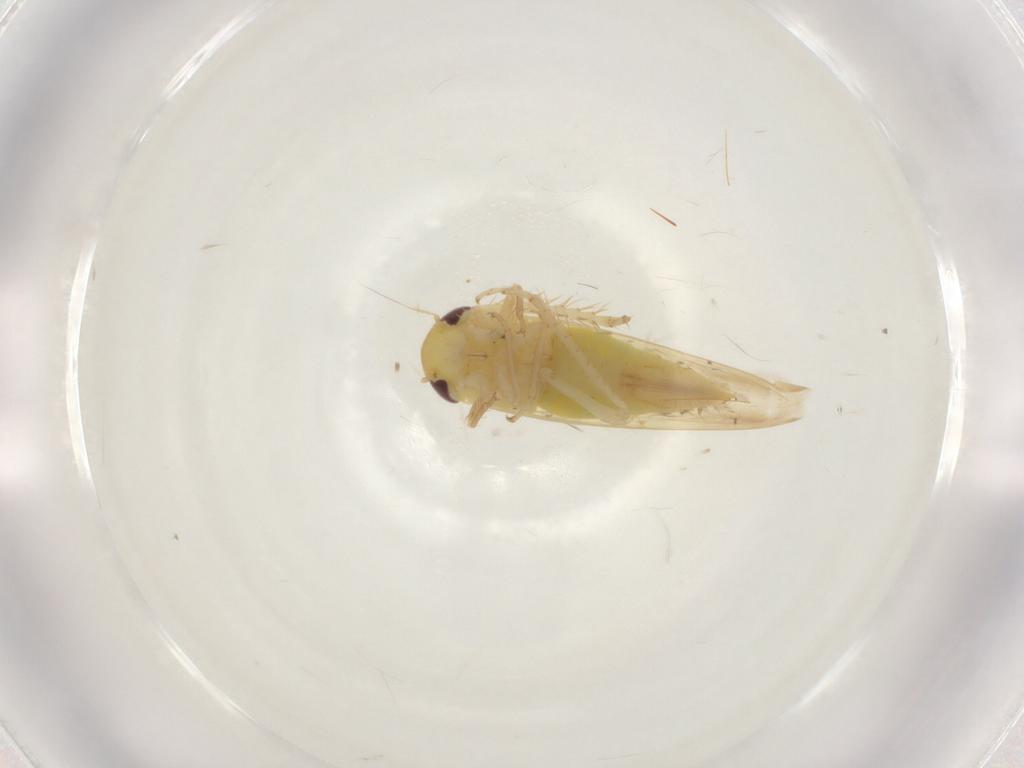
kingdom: Animalia
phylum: Arthropoda
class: Insecta
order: Hemiptera
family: Cicadellidae
